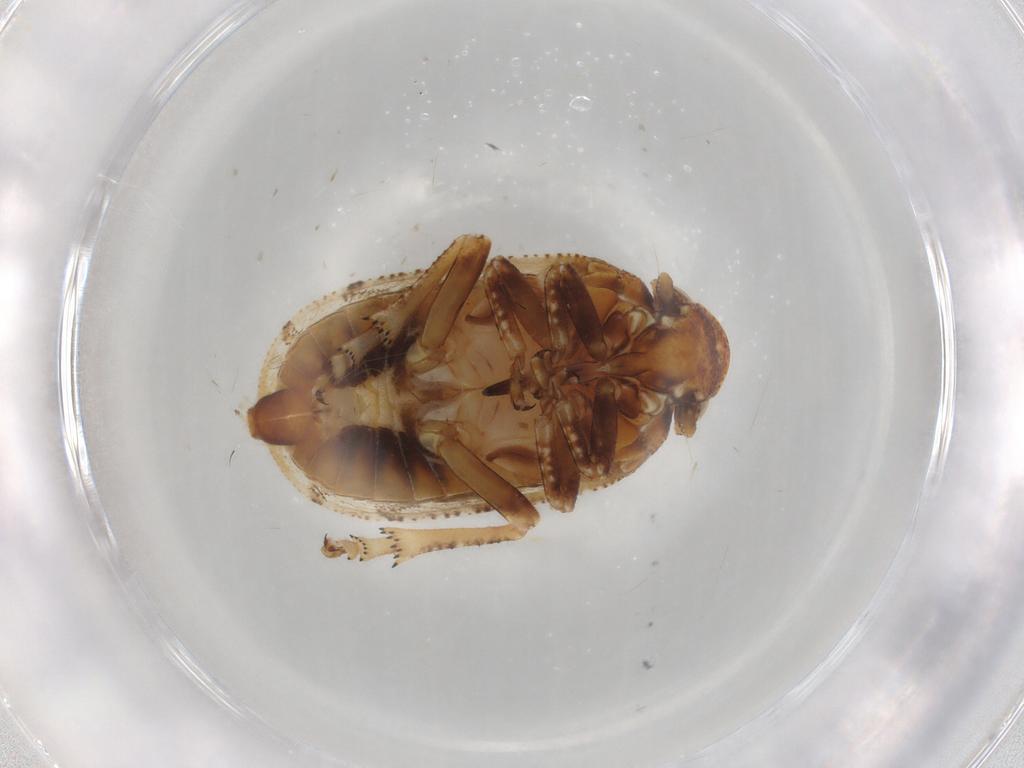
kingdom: Animalia
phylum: Arthropoda
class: Insecta
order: Hemiptera
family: Tettigometridae
